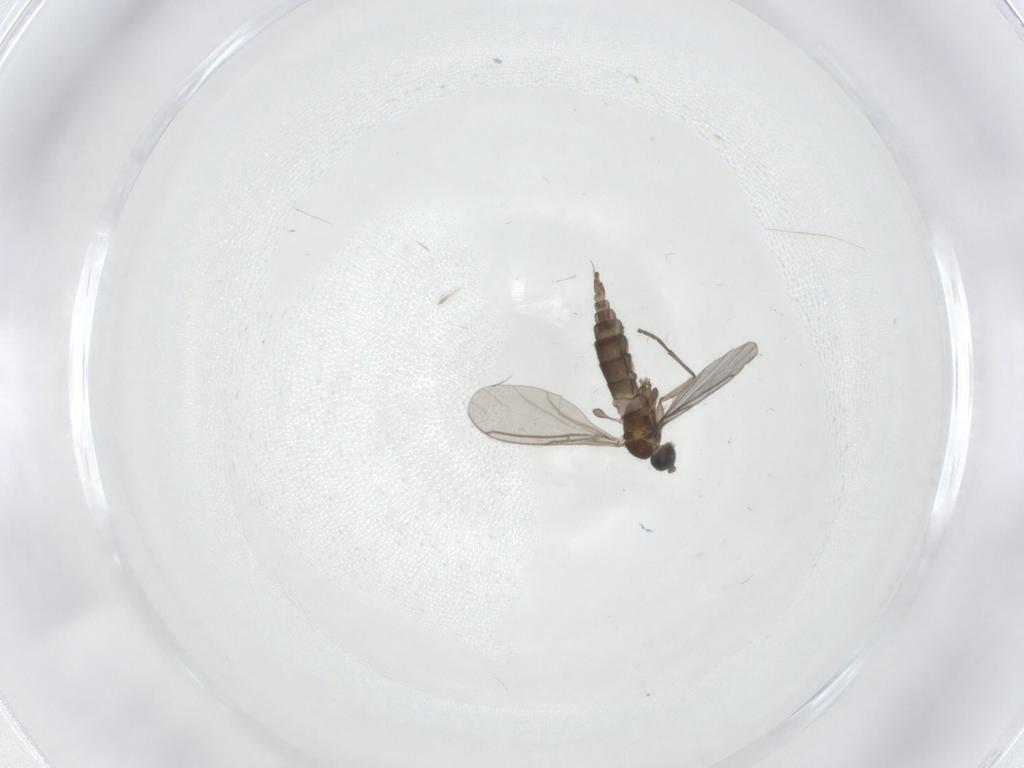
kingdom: Animalia
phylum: Arthropoda
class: Insecta
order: Diptera
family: Sciaridae
